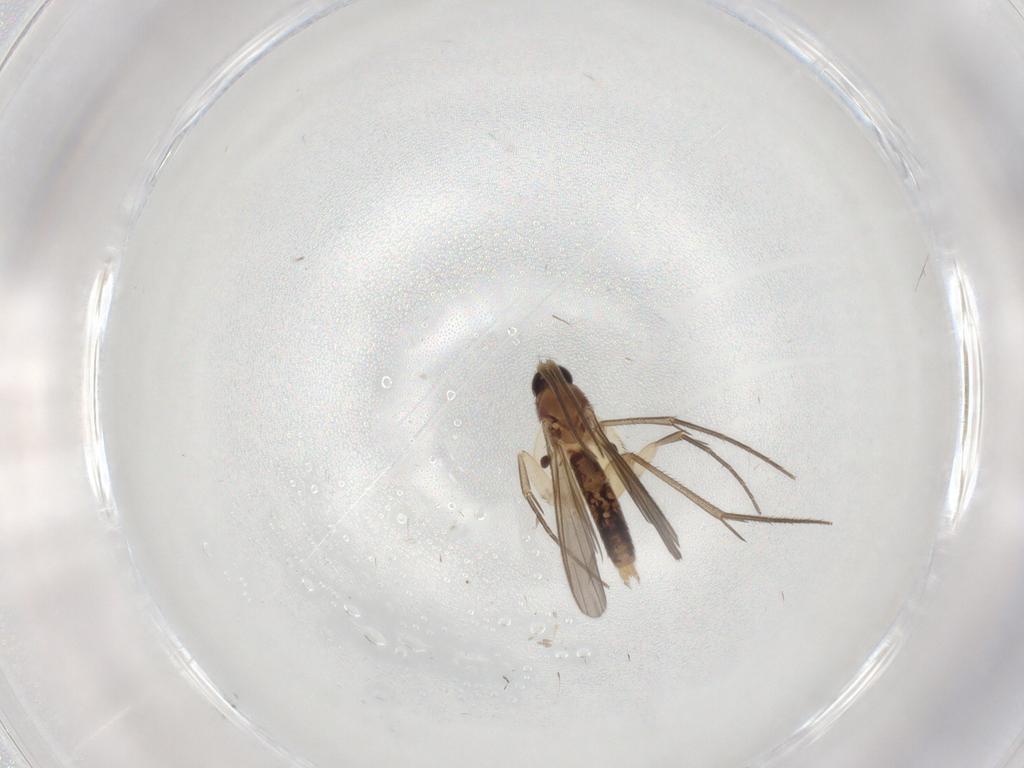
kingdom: Animalia
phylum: Arthropoda
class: Insecta
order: Diptera
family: Mycetophilidae
